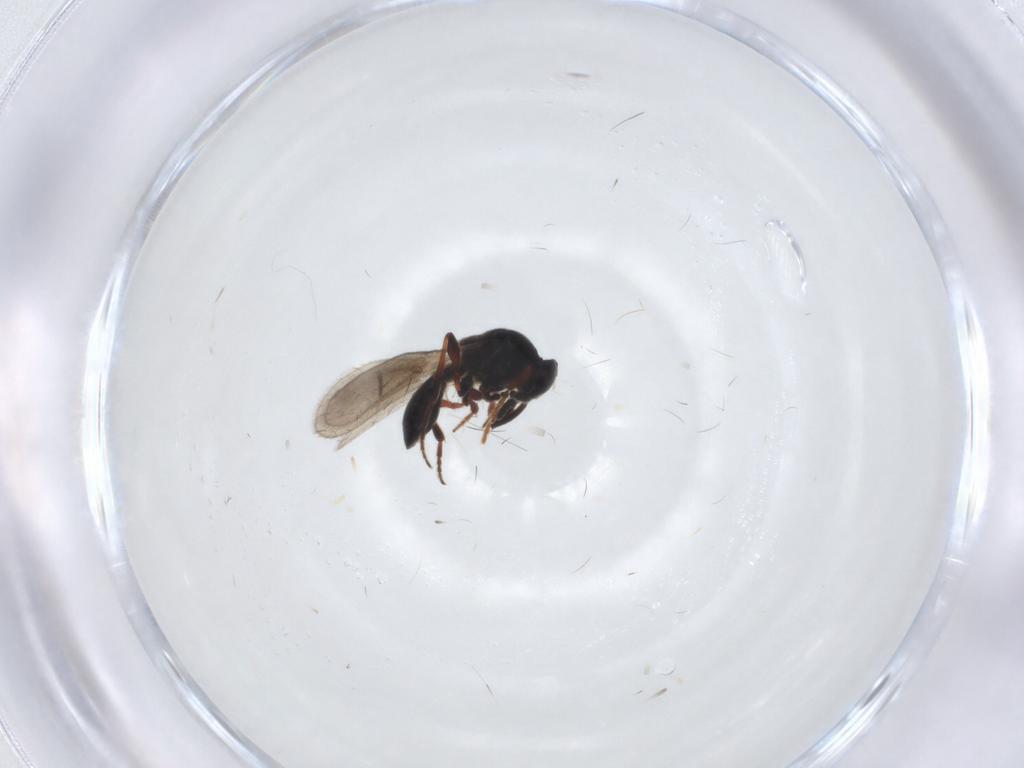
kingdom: Animalia
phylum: Arthropoda
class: Insecta
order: Hymenoptera
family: Platygastridae
